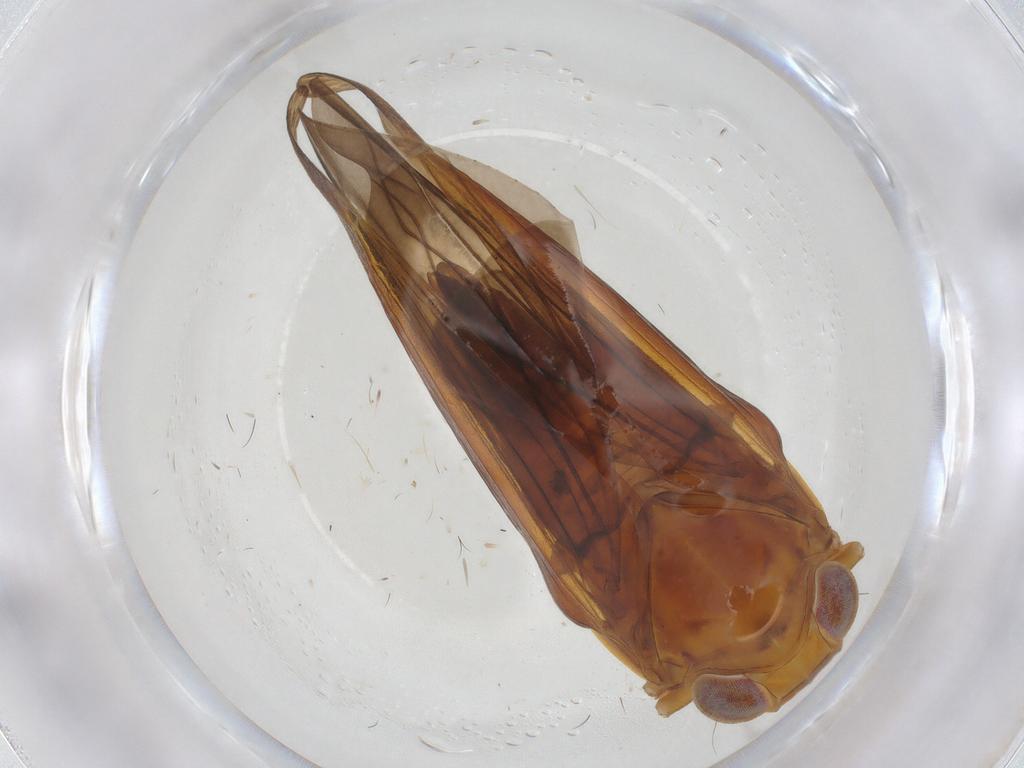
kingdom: Animalia
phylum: Arthropoda
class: Insecta
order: Hemiptera
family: Nogodinidae
